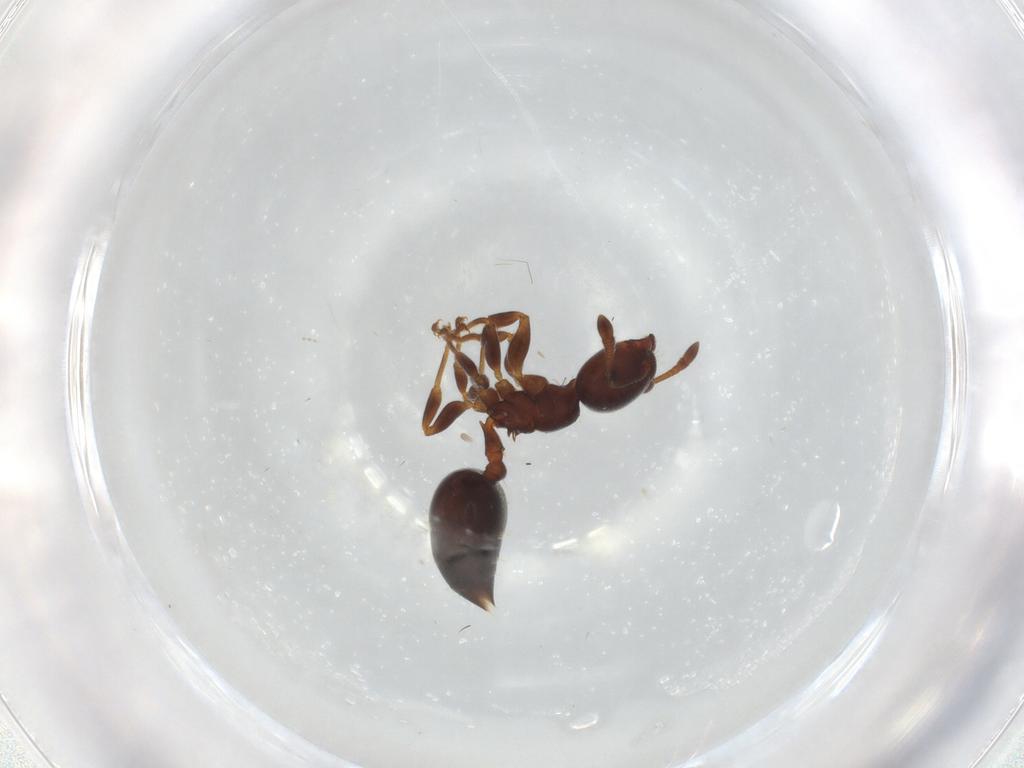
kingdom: Animalia
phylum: Arthropoda
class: Insecta
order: Hymenoptera
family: Formicidae
